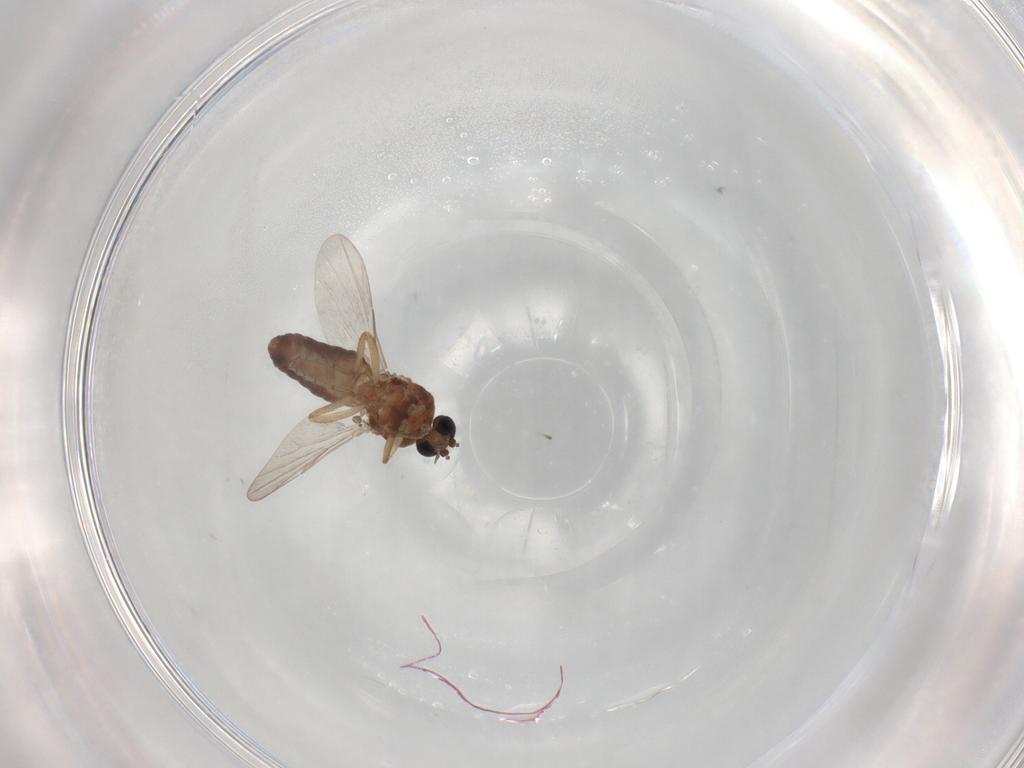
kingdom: Animalia
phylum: Arthropoda
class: Insecta
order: Diptera
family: Ceratopogonidae
